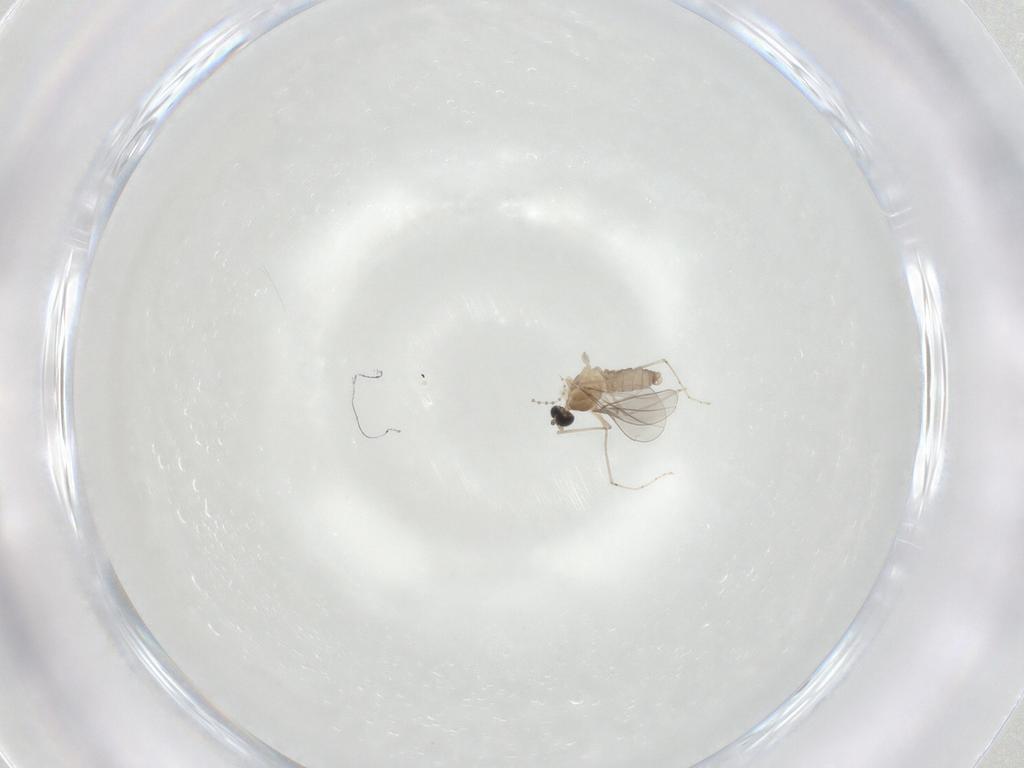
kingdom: Animalia
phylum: Arthropoda
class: Insecta
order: Diptera
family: Cecidomyiidae
